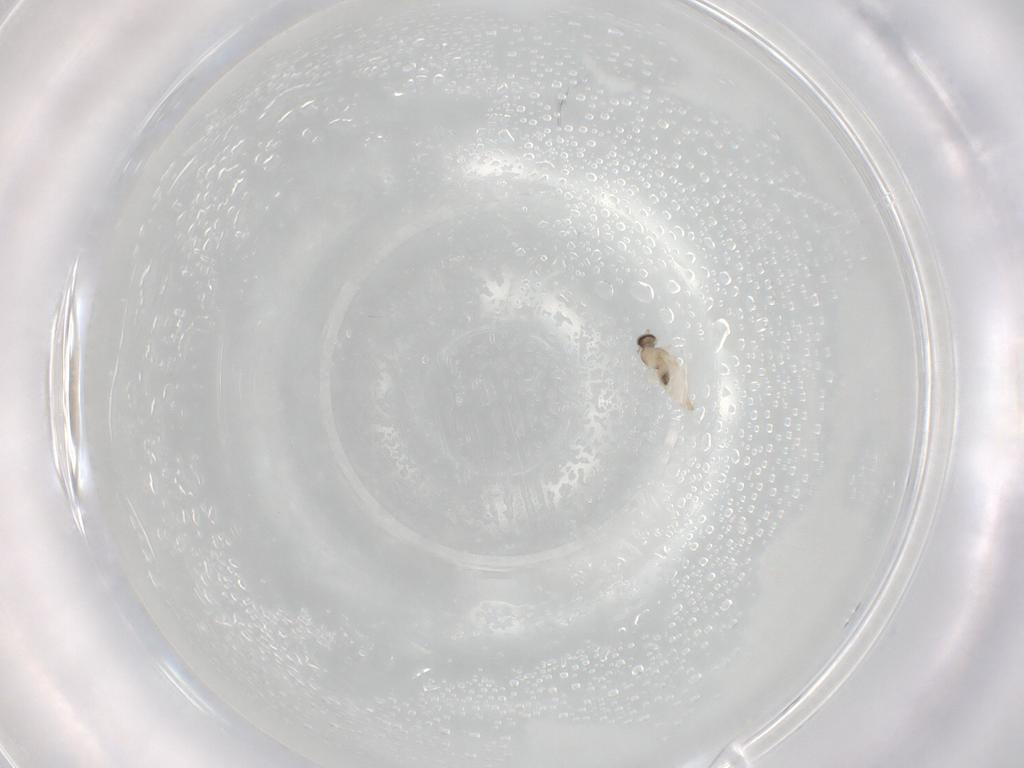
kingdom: Animalia
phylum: Arthropoda
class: Insecta
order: Diptera
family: Cecidomyiidae
